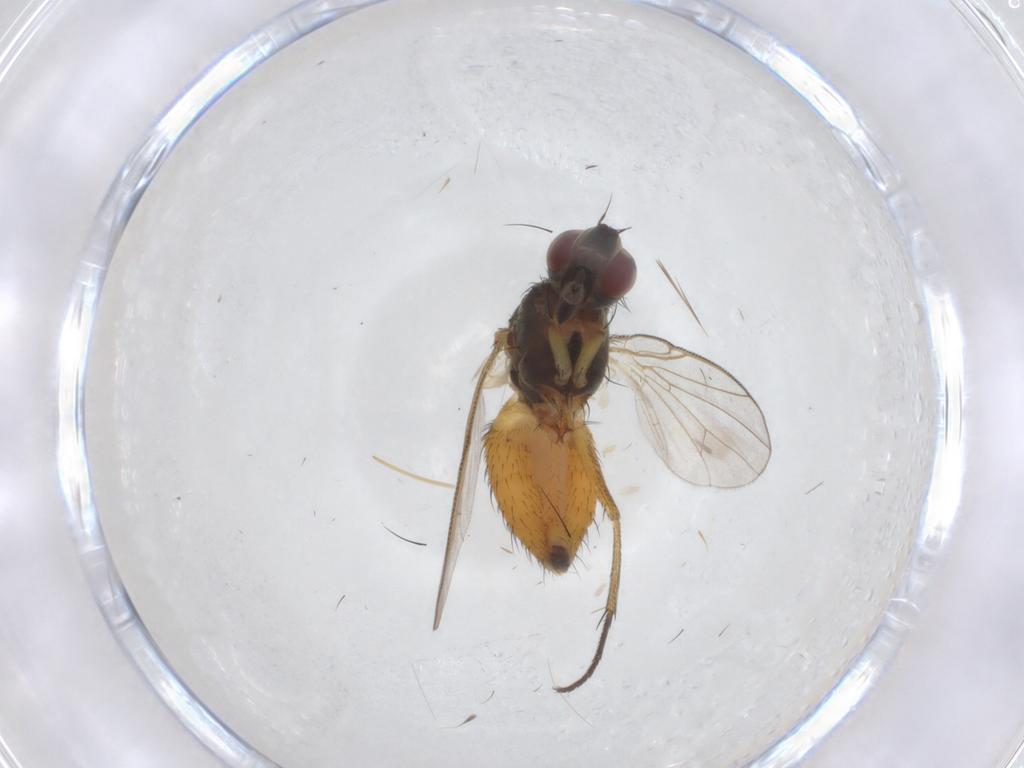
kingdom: Animalia
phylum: Arthropoda
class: Insecta
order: Diptera
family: Muscidae
